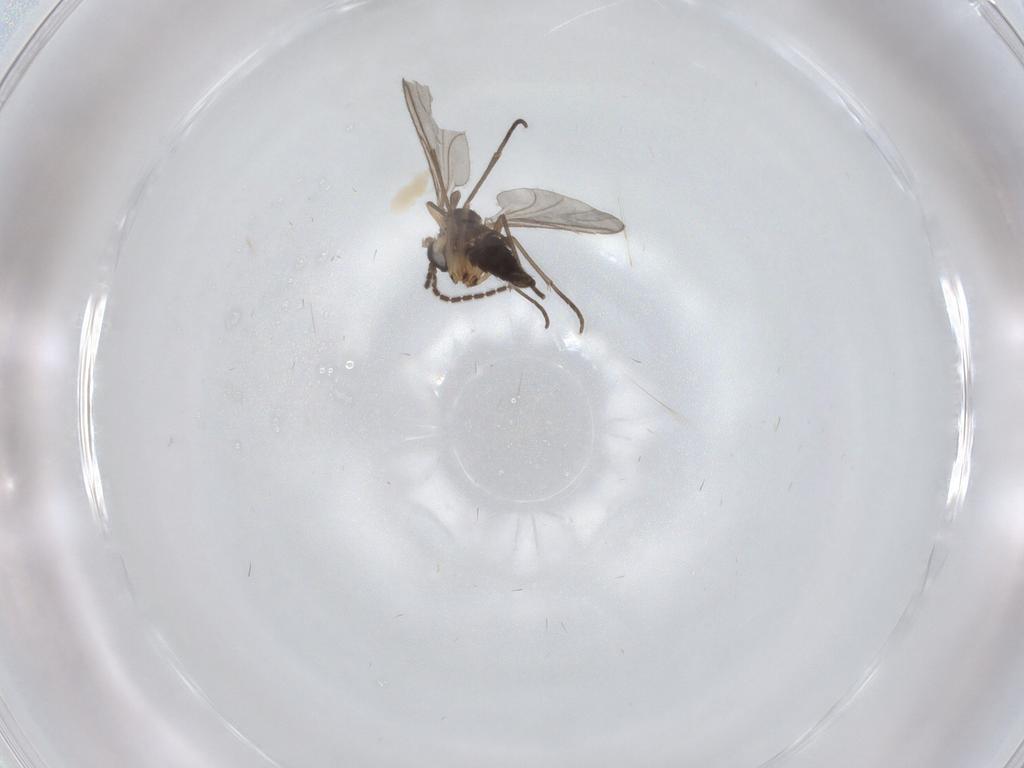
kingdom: Animalia
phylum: Arthropoda
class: Insecta
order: Diptera
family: Sciaridae
